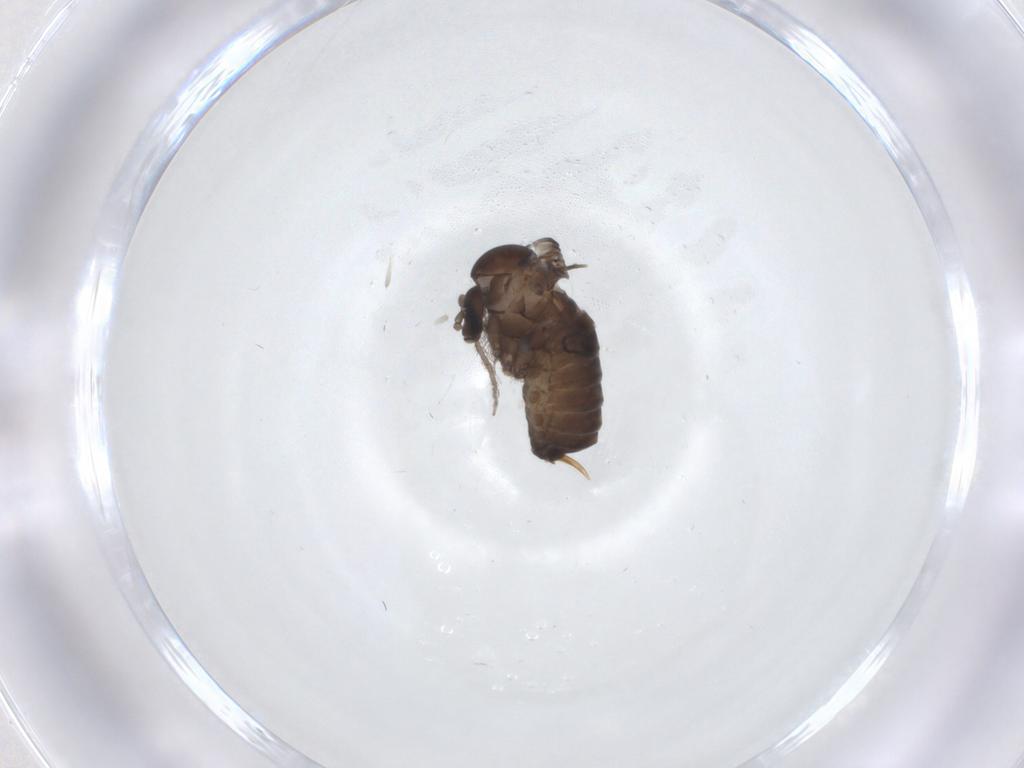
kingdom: Animalia
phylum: Arthropoda
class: Insecta
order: Diptera
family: Psychodidae
